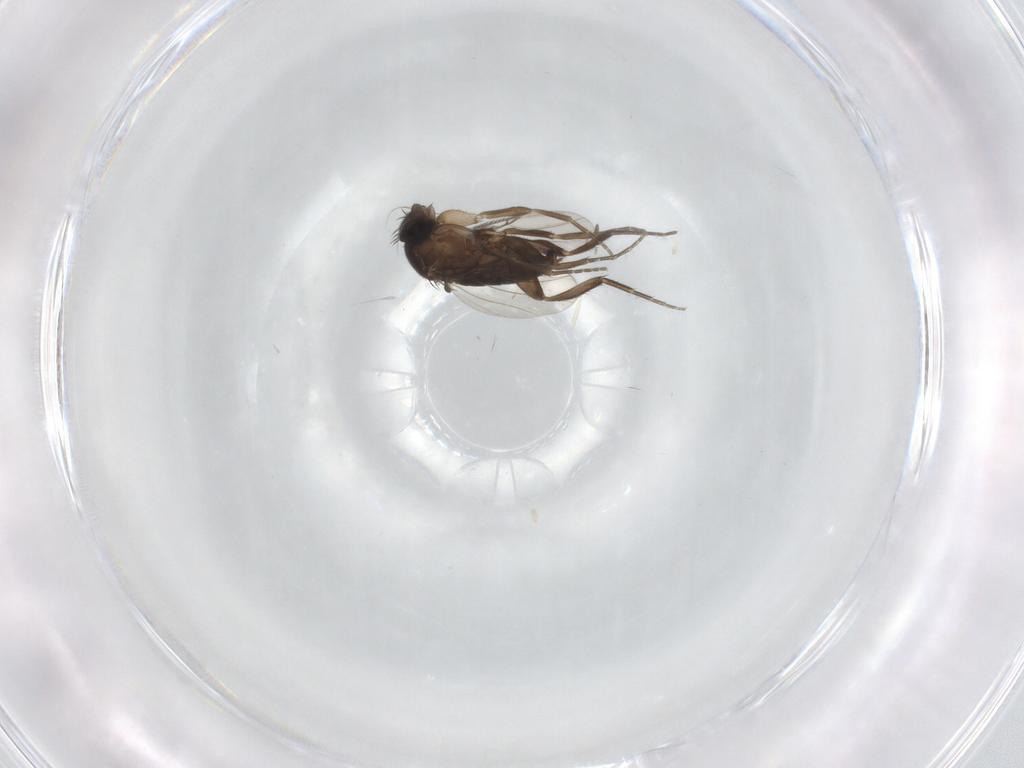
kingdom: Animalia
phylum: Arthropoda
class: Insecta
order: Diptera
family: Phoridae
